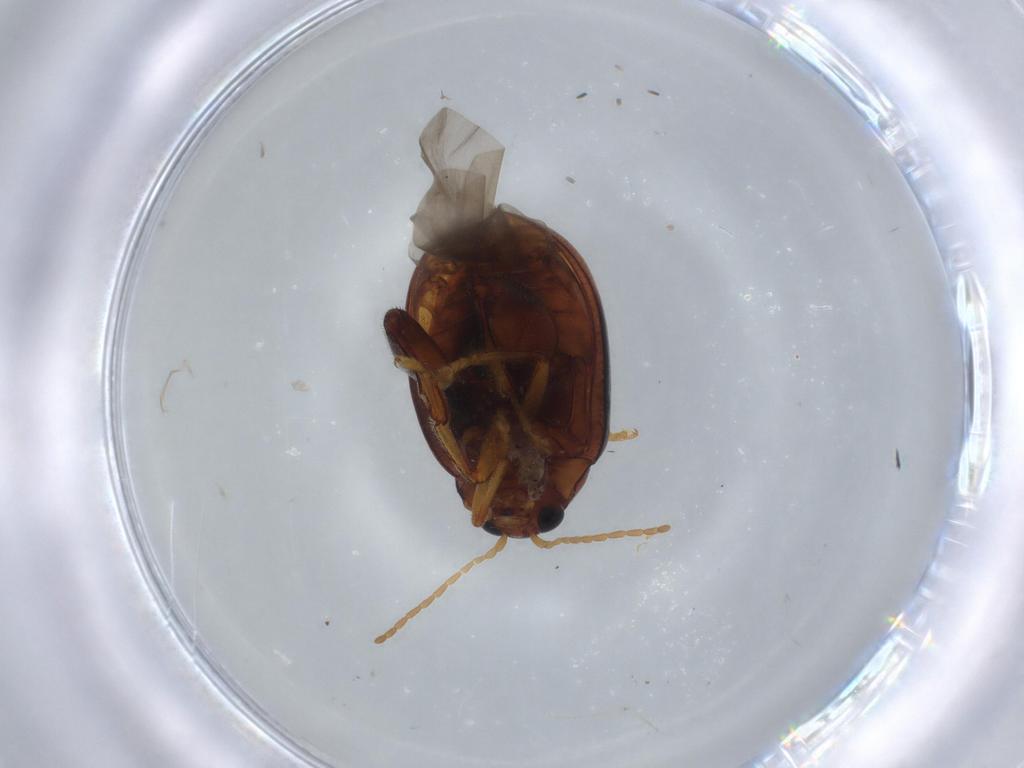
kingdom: Animalia
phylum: Arthropoda
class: Insecta
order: Coleoptera
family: Chrysomelidae
